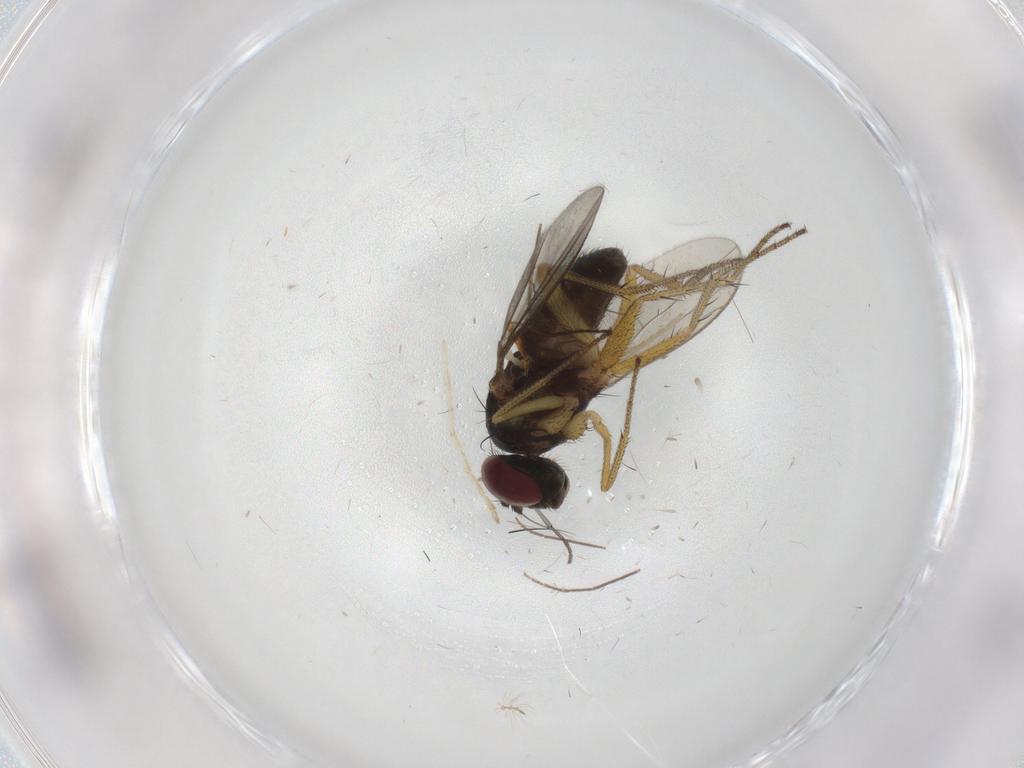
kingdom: Animalia
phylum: Arthropoda
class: Insecta
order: Diptera
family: Sciaridae
